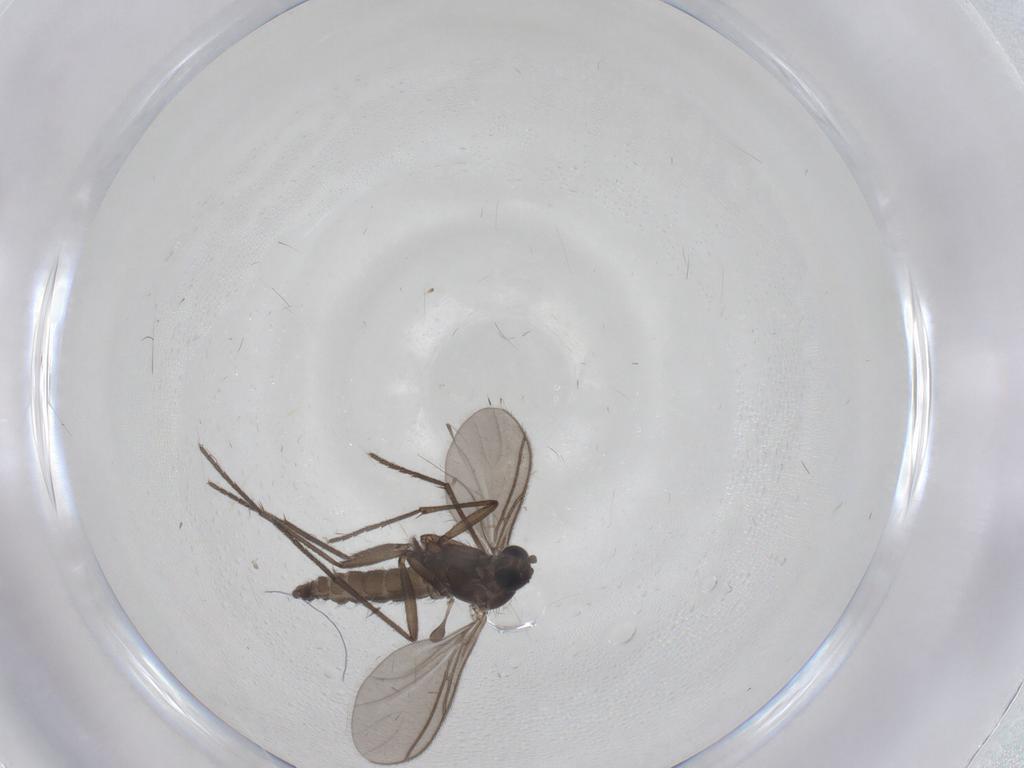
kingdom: Animalia
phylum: Arthropoda
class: Insecta
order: Diptera
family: Sciaridae
